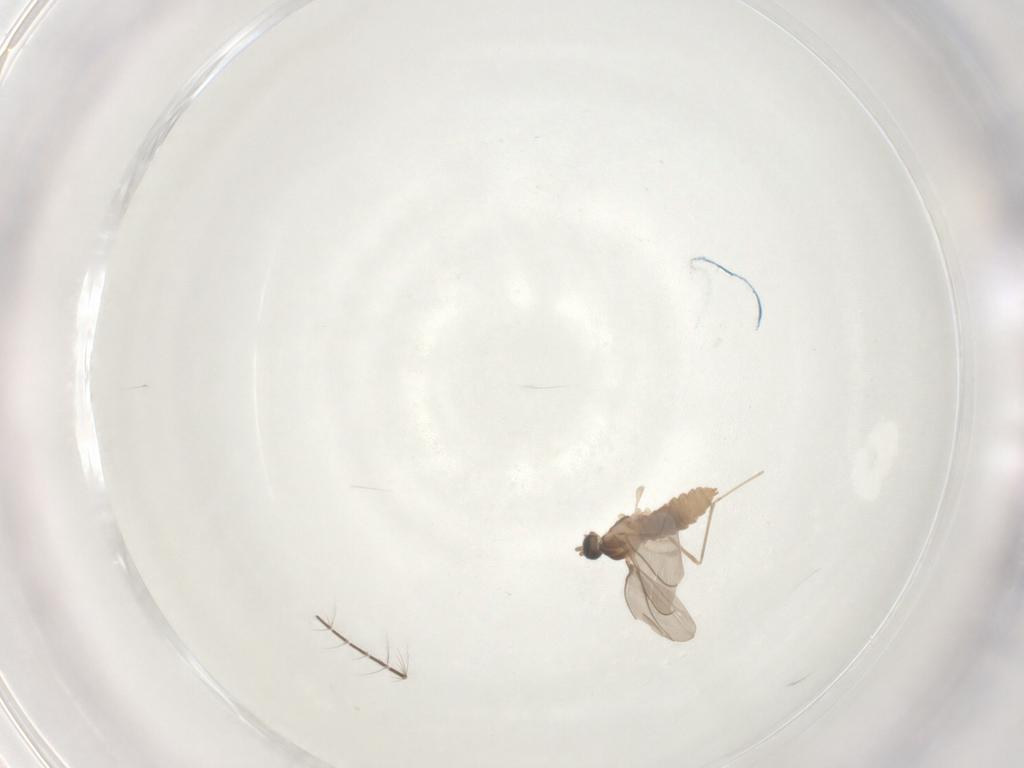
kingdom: Animalia
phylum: Arthropoda
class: Insecta
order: Diptera
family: Cecidomyiidae
